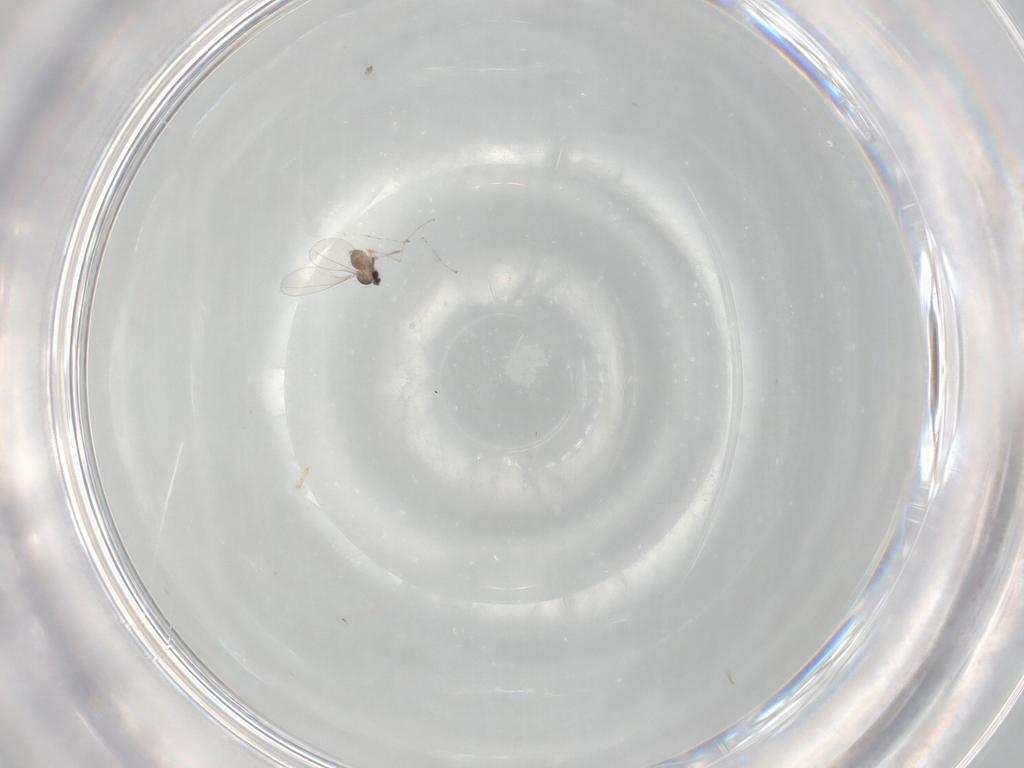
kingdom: Animalia
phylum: Arthropoda
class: Insecta
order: Diptera
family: Cecidomyiidae
